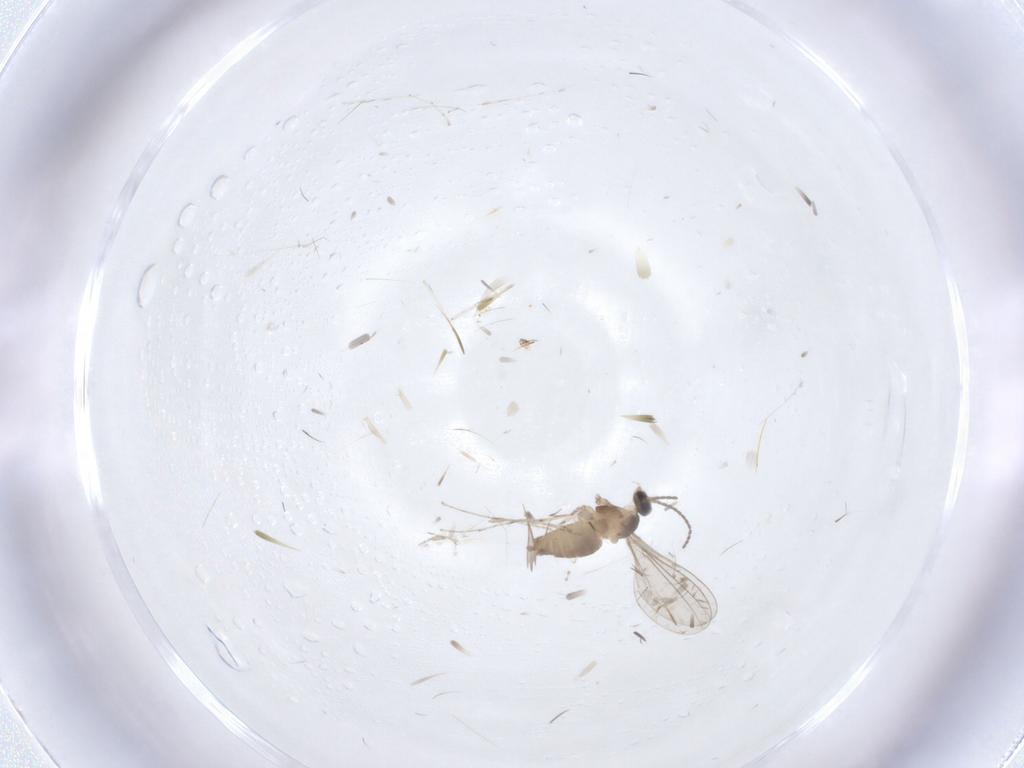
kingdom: Animalia
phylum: Arthropoda
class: Insecta
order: Diptera
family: Cecidomyiidae
